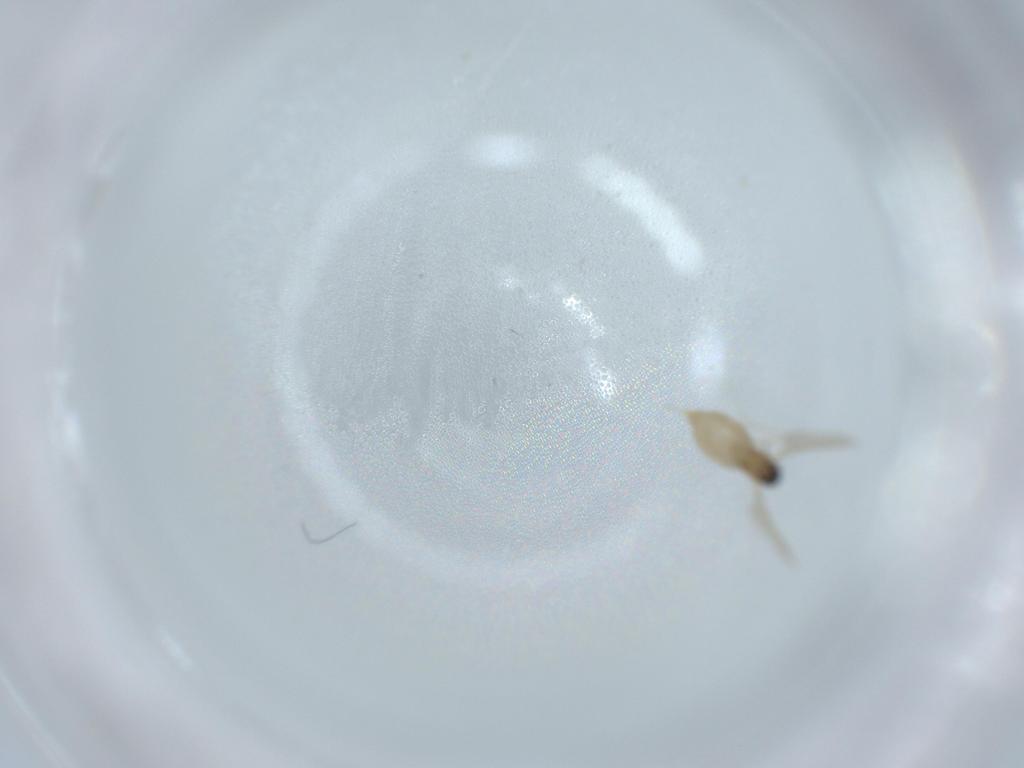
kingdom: Animalia
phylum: Arthropoda
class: Insecta
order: Diptera
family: Cecidomyiidae
